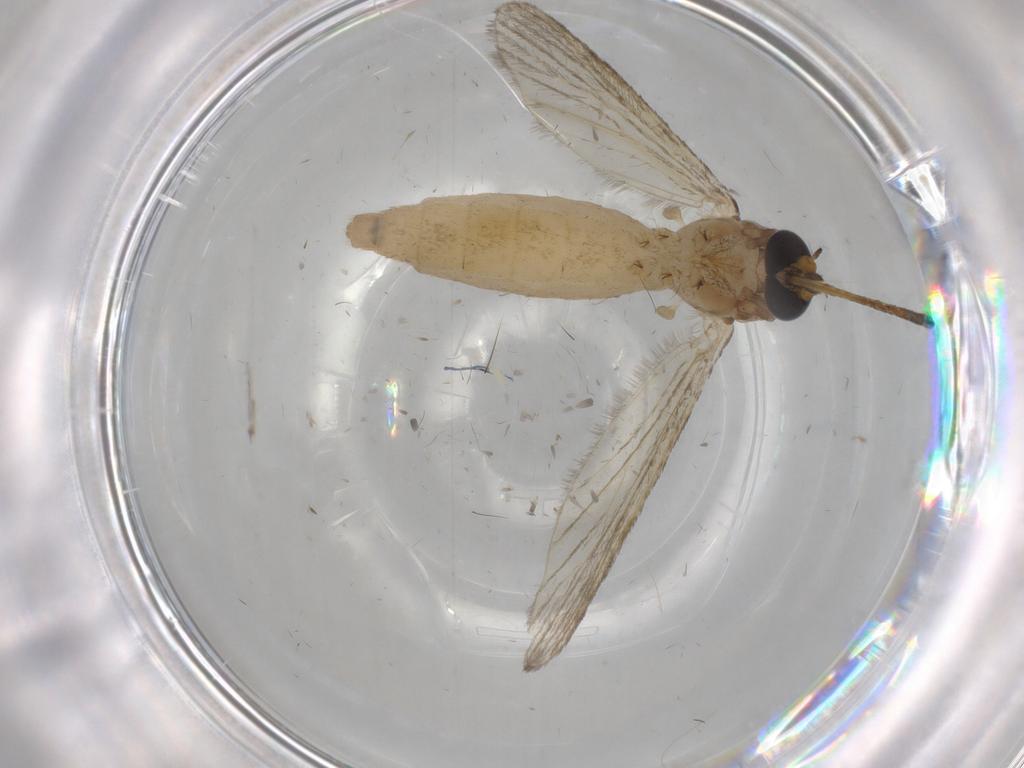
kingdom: Animalia
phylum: Arthropoda
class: Insecta
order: Diptera
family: Culicidae
